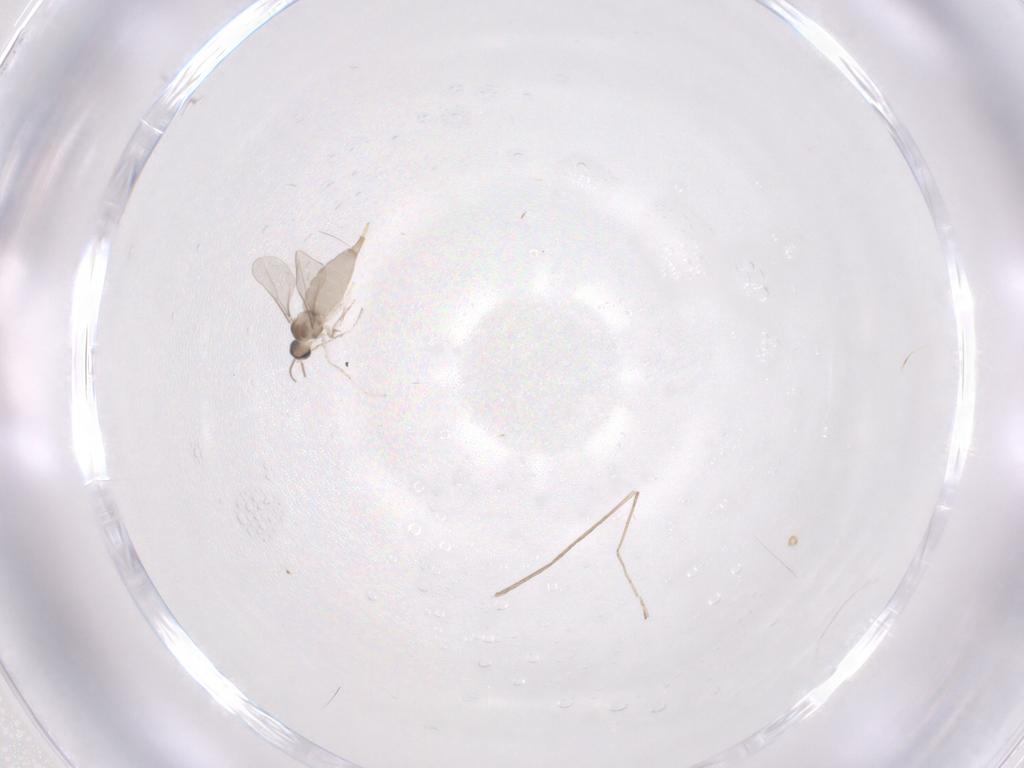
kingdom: Animalia
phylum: Arthropoda
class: Insecta
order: Diptera
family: Cecidomyiidae
